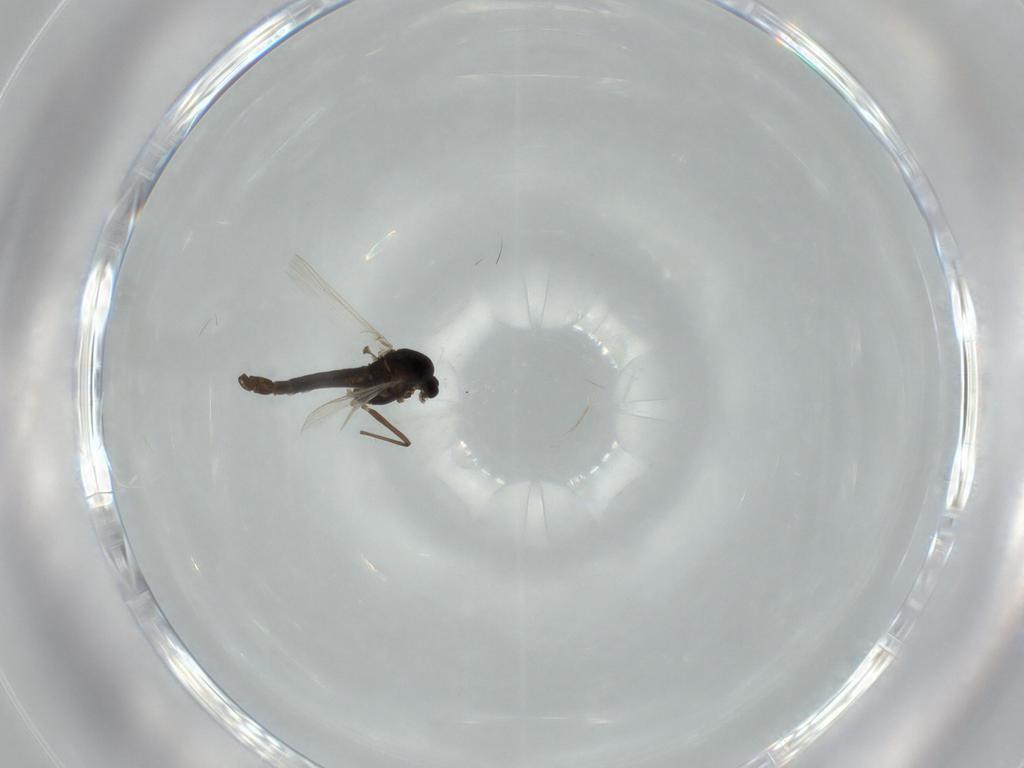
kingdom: Animalia
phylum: Arthropoda
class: Insecta
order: Diptera
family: Chironomidae
